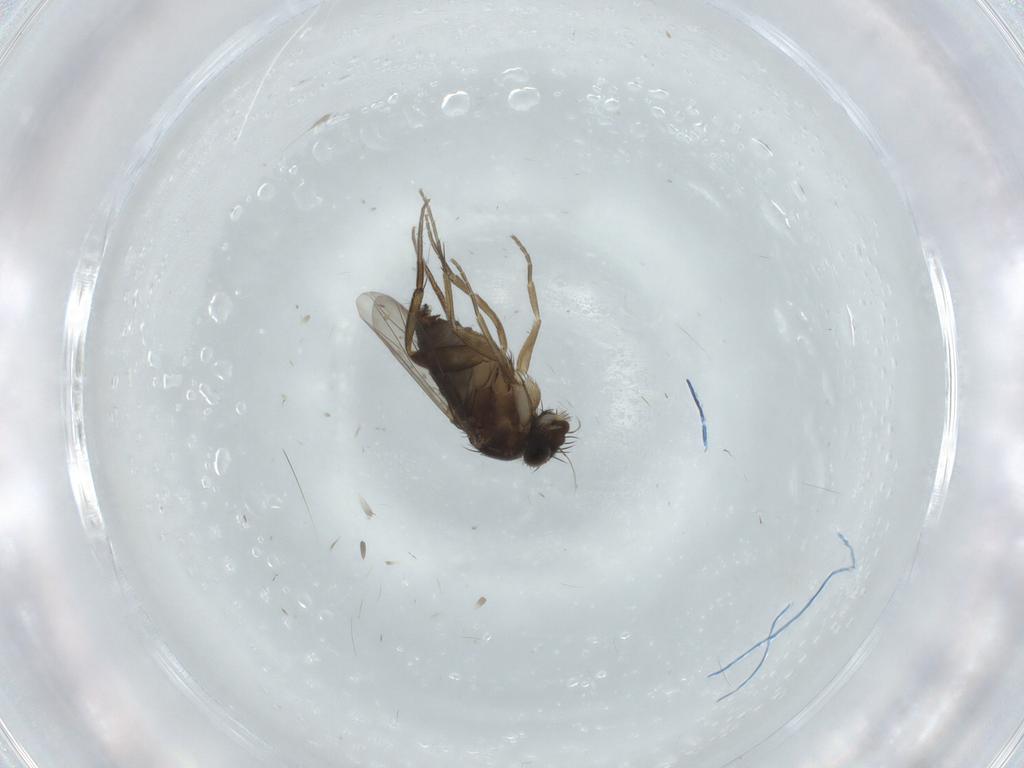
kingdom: Animalia
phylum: Arthropoda
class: Insecta
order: Diptera
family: Phoridae
